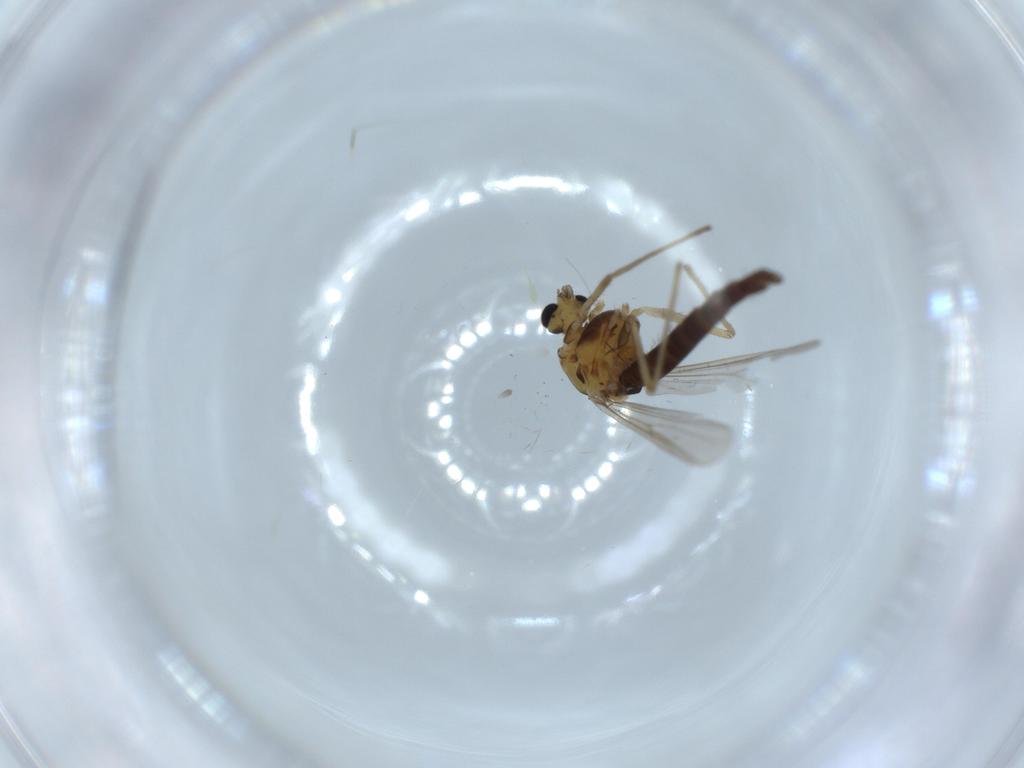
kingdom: Animalia
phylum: Arthropoda
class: Insecta
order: Diptera
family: Chironomidae
